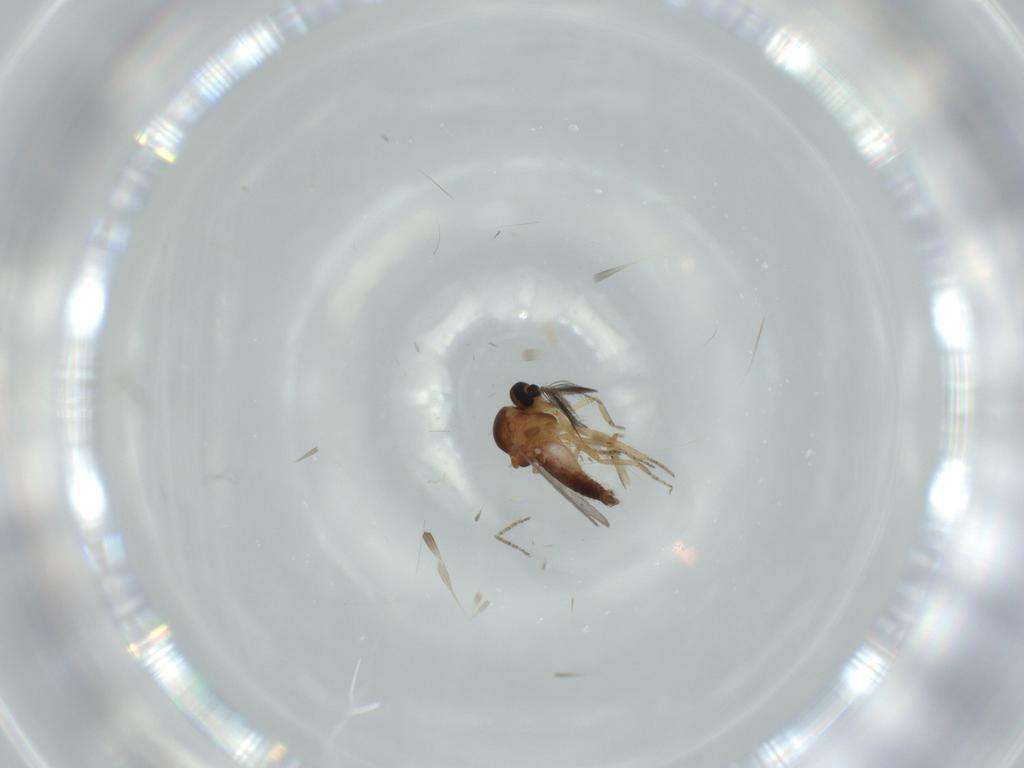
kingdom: Animalia
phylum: Arthropoda
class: Insecta
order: Diptera
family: Ceratopogonidae
